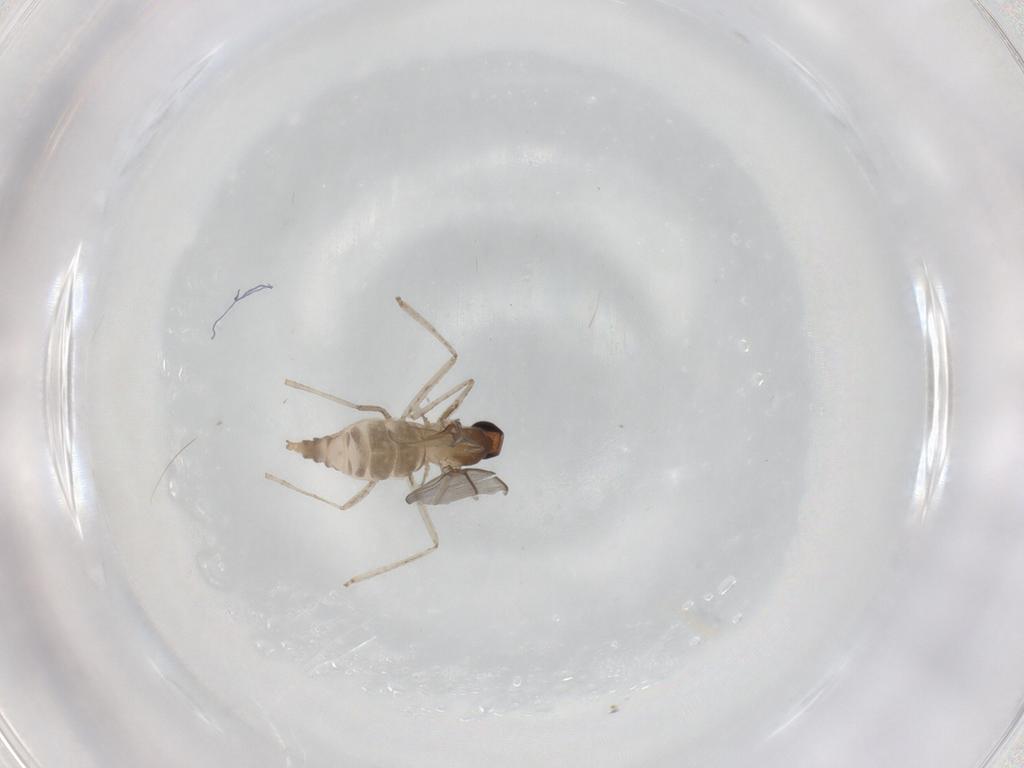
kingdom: Animalia
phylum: Arthropoda
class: Insecta
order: Diptera
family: Cecidomyiidae
